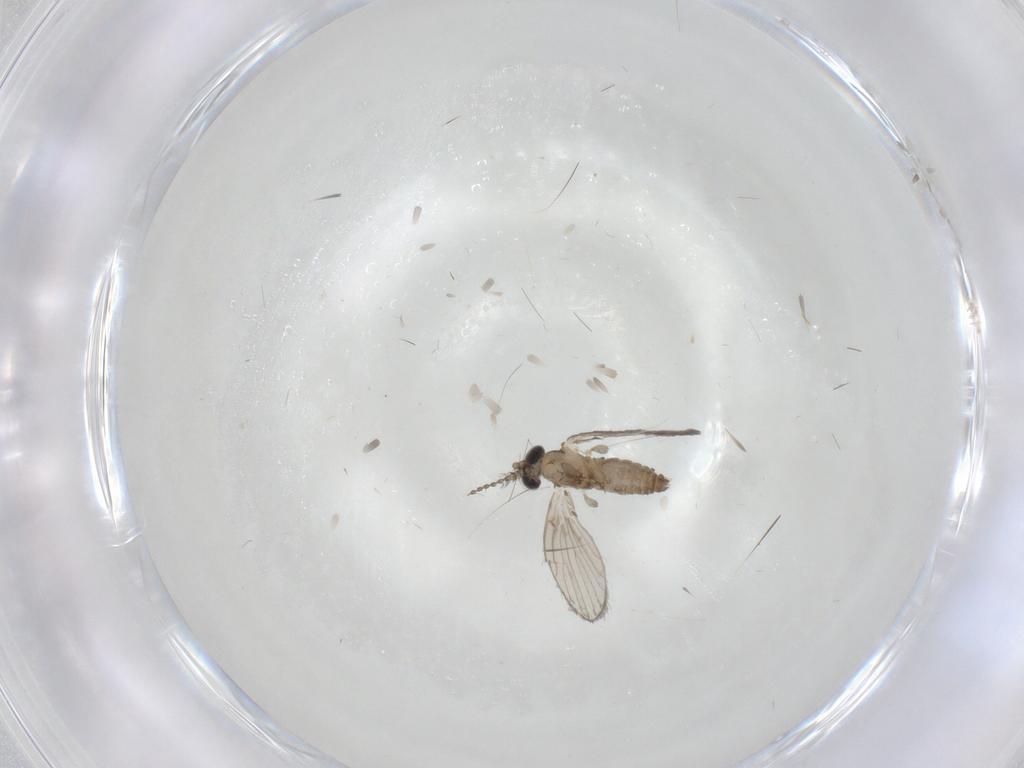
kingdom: Animalia
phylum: Arthropoda
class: Insecta
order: Diptera
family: Psychodidae
